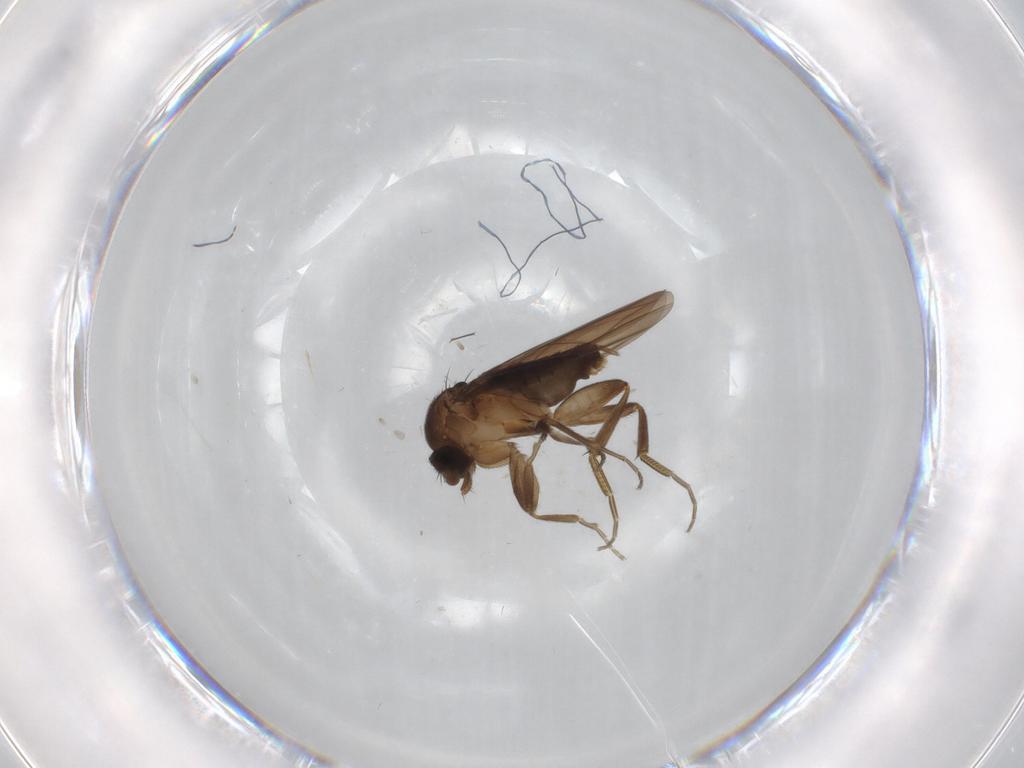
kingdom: Animalia
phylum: Arthropoda
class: Insecta
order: Diptera
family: Phoridae
